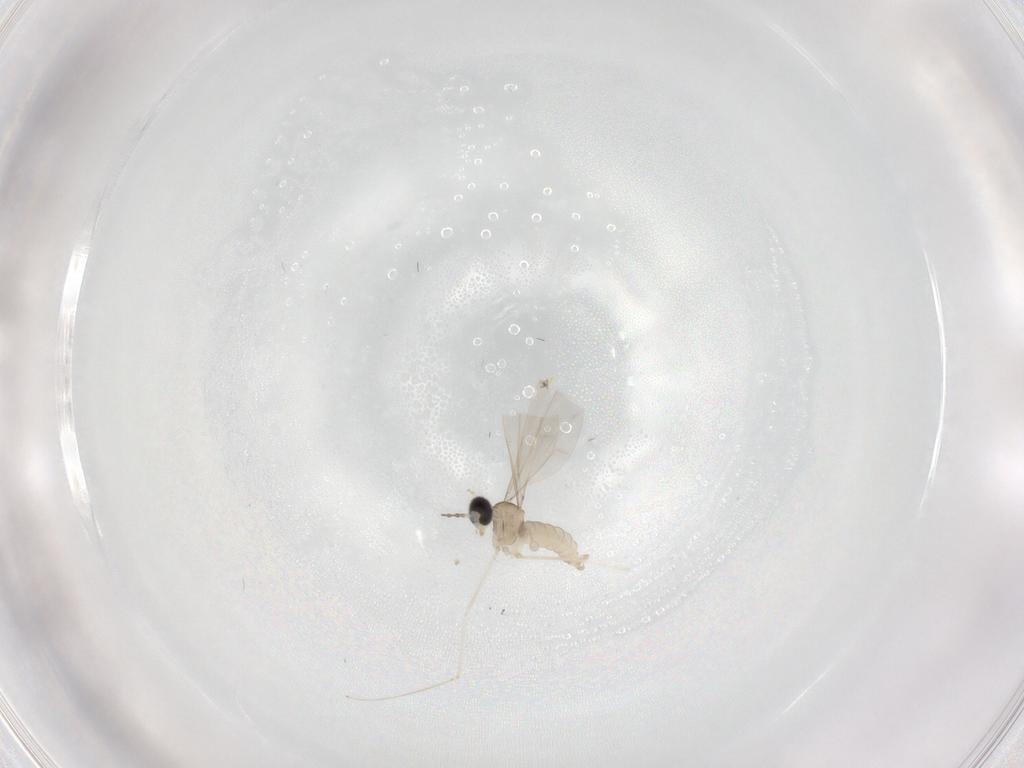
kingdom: Animalia
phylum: Arthropoda
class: Insecta
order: Diptera
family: Cecidomyiidae
